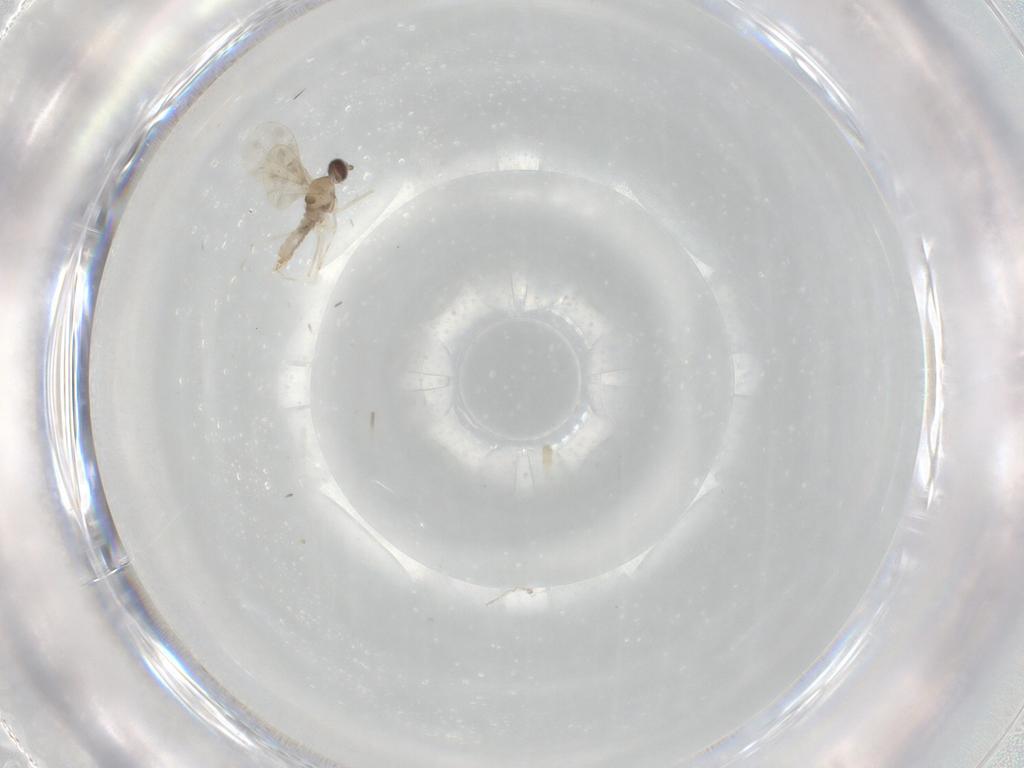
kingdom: Animalia
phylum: Arthropoda
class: Insecta
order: Diptera
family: Cecidomyiidae
